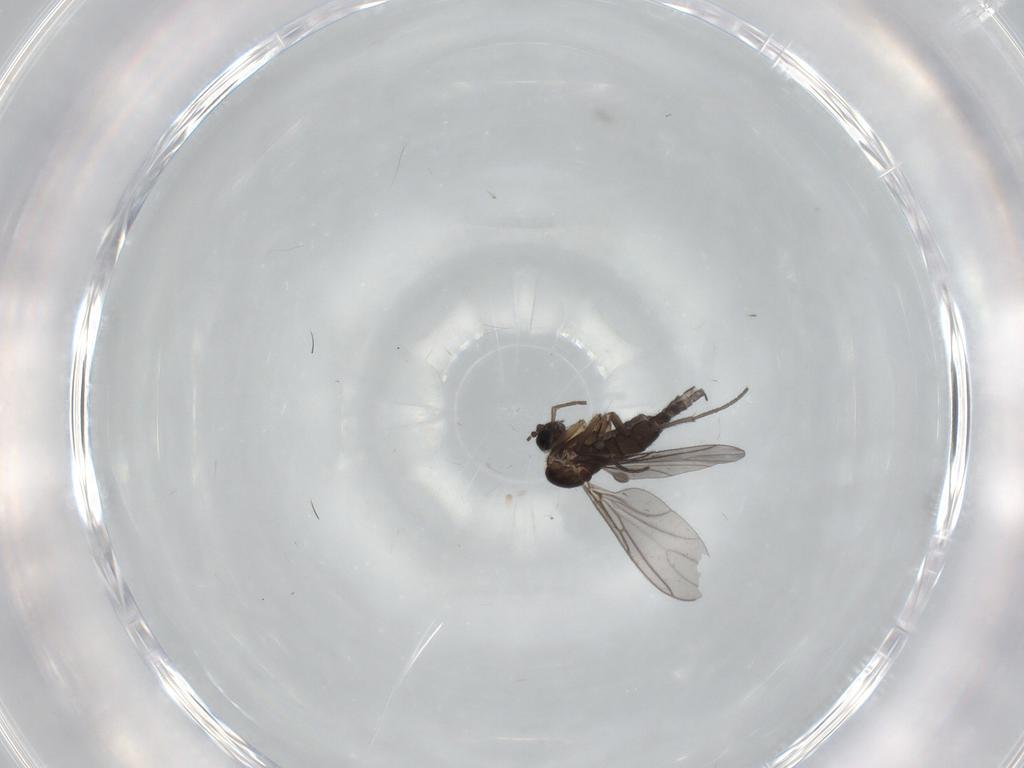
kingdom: Animalia
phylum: Arthropoda
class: Insecta
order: Diptera
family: Sciaridae
